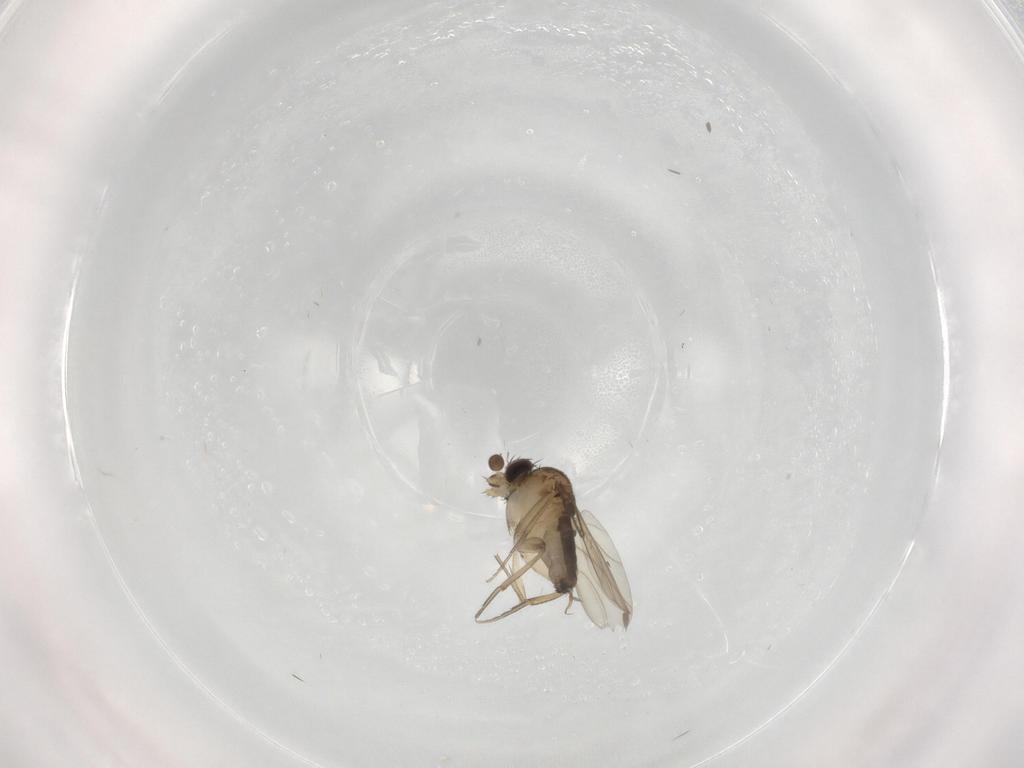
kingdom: Animalia
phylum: Arthropoda
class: Insecta
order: Diptera
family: Phoridae
